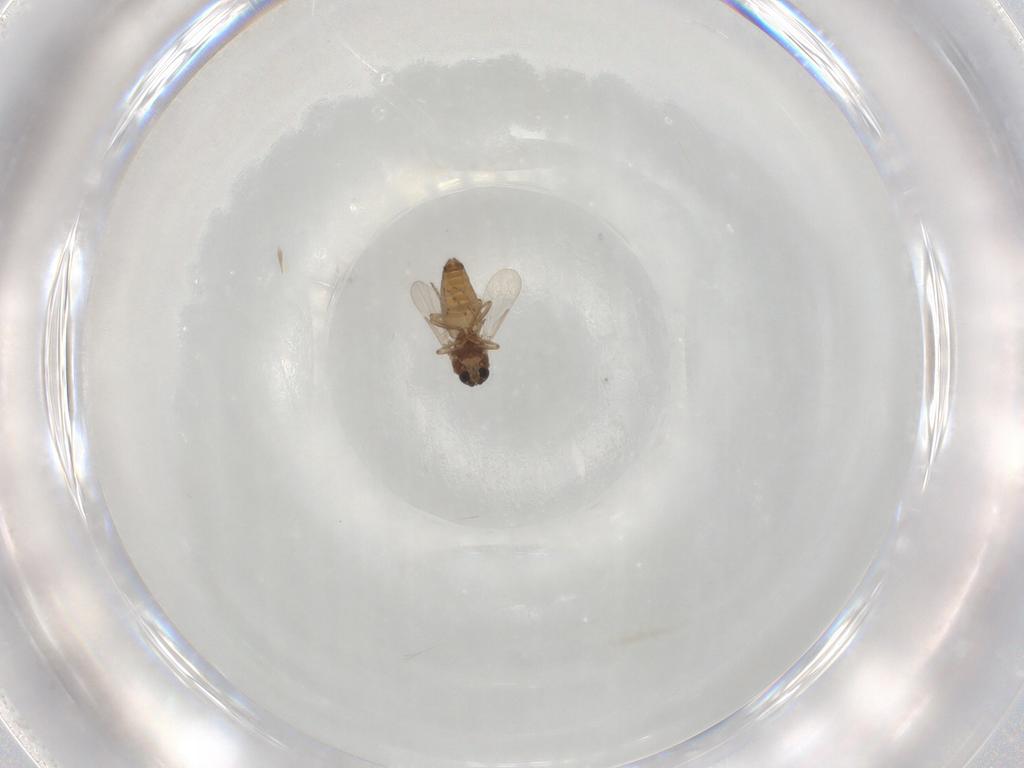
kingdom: Animalia
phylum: Arthropoda
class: Insecta
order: Diptera
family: Ceratopogonidae
